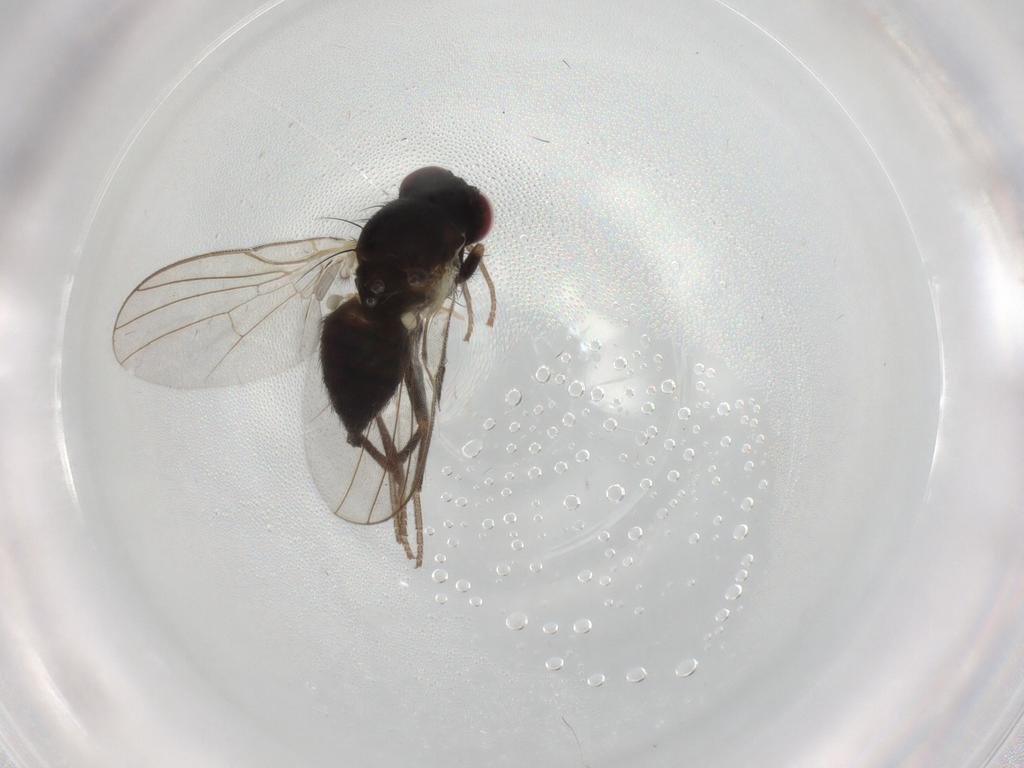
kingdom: Animalia
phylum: Arthropoda
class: Insecta
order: Diptera
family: Agromyzidae
